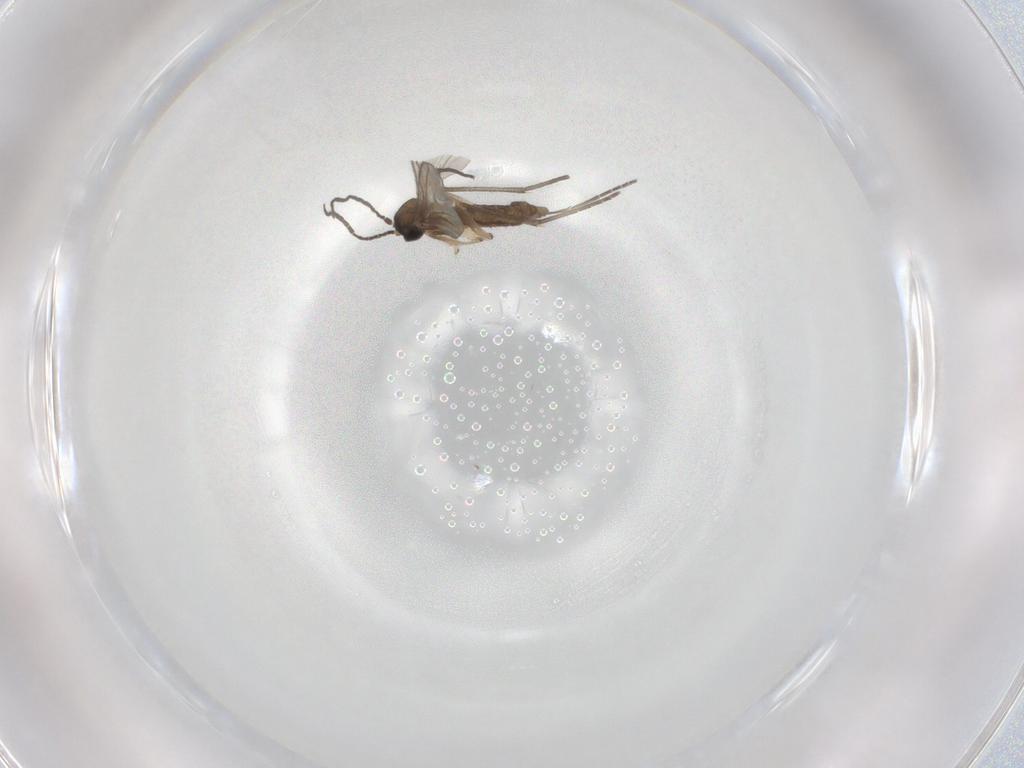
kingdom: Animalia
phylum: Arthropoda
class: Insecta
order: Diptera
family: Sciaridae
